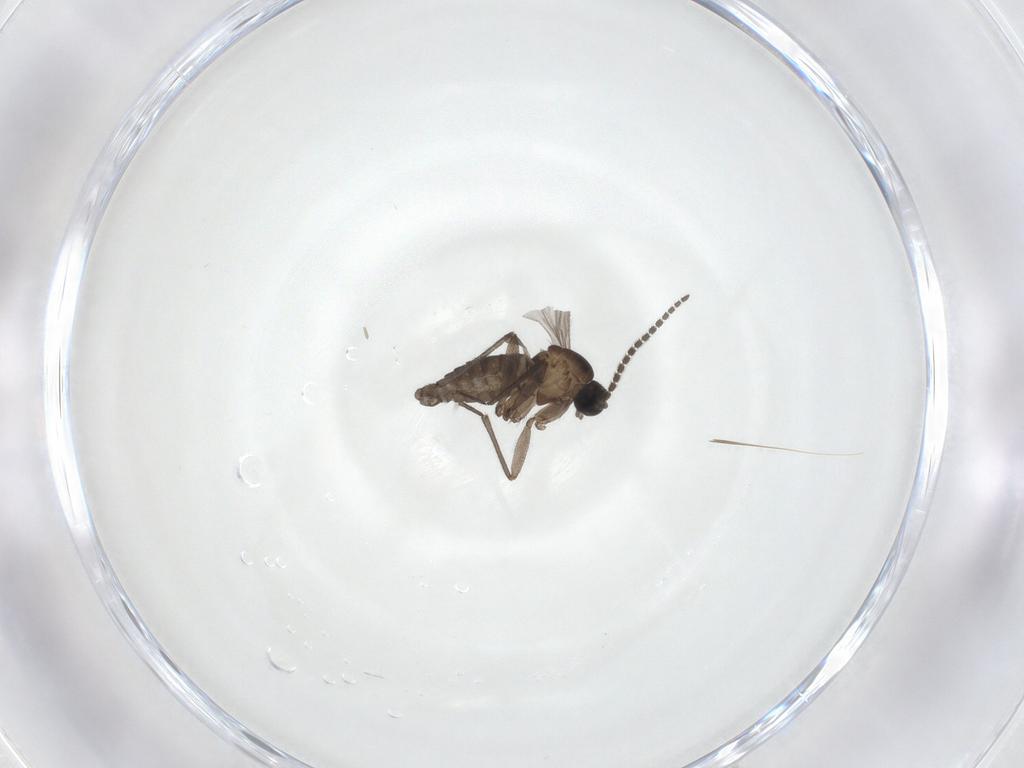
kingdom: Animalia
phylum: Arthropoda
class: Insecta
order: Diptera
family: Sciaridae
